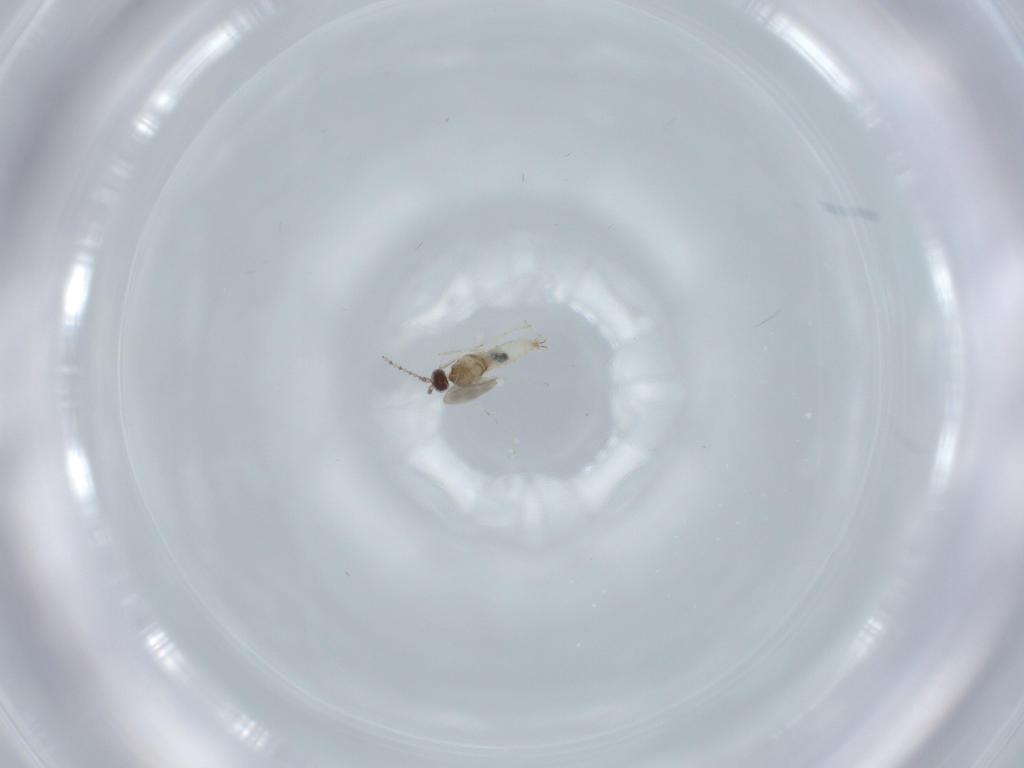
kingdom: Animalia
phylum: Arthropoda
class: Insecta
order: Diptera
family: Cecidomyiidae
